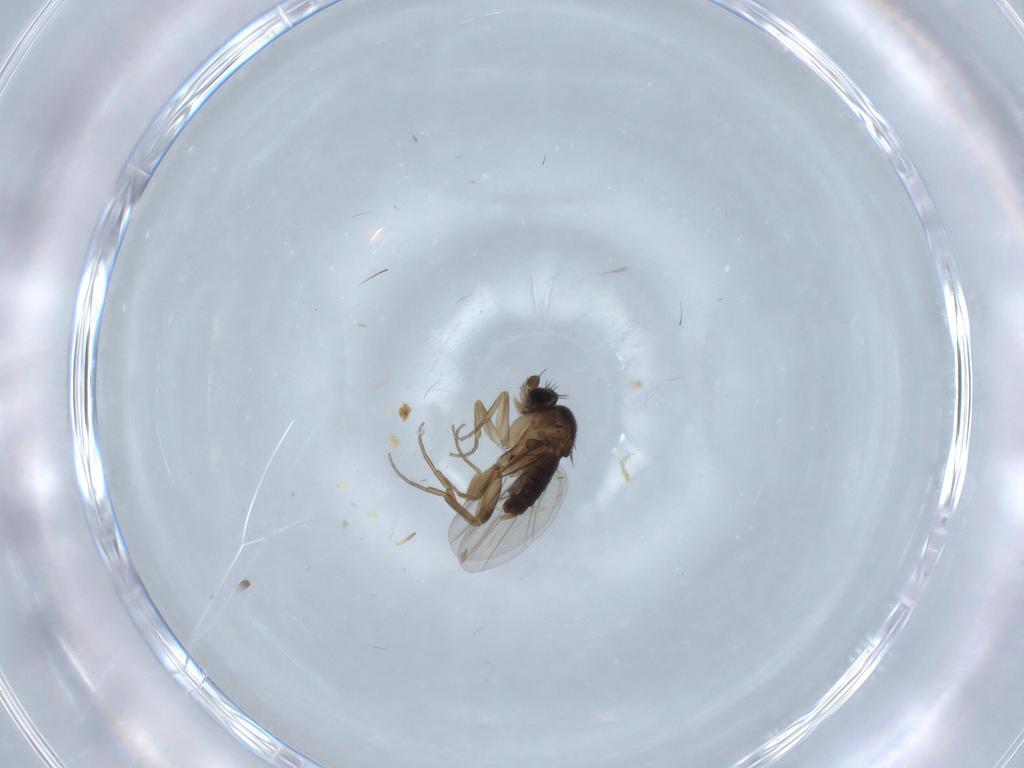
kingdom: Animalia
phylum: Arthropoda
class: Insecta
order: Diptera
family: Phoridae
